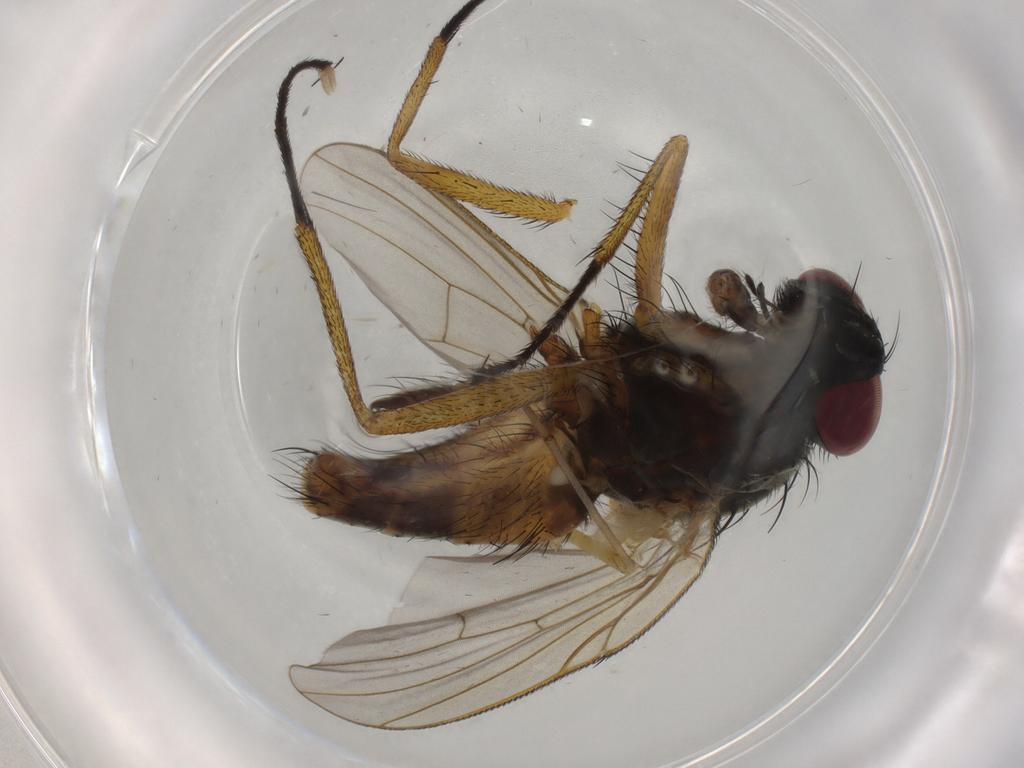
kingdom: Animalia
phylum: Arthropoda
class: Insecta
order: Diptera
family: Muscidae
